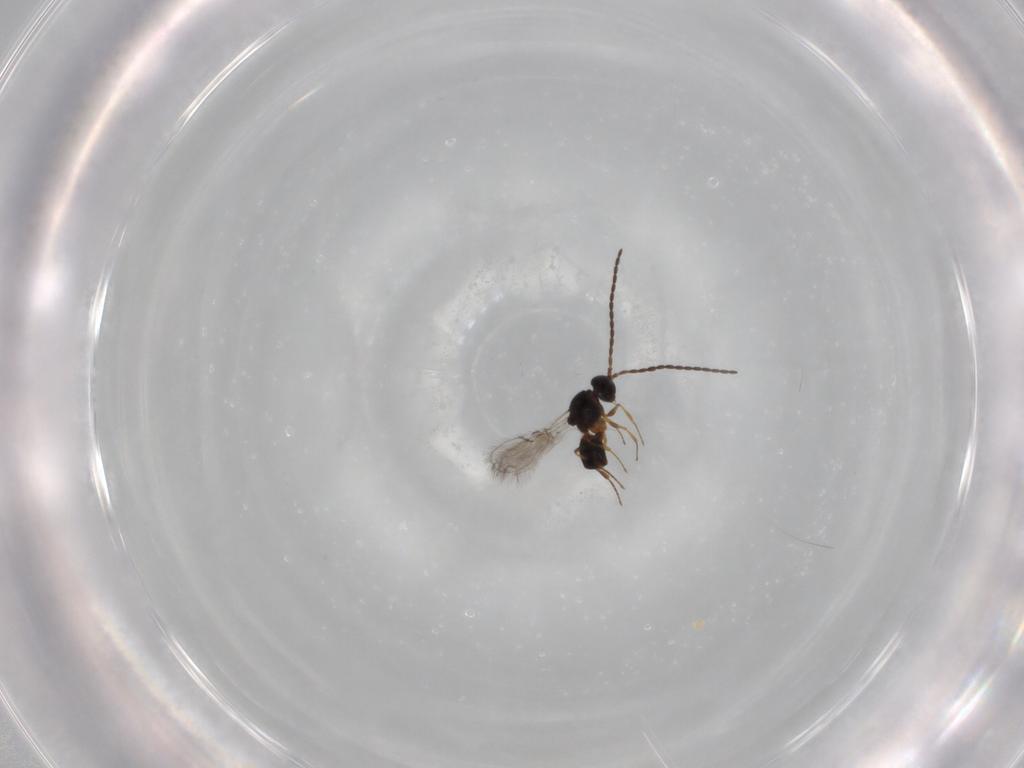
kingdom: Animalia
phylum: Arthropoda
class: Insecta
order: Hymenoptera
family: Figitidae
